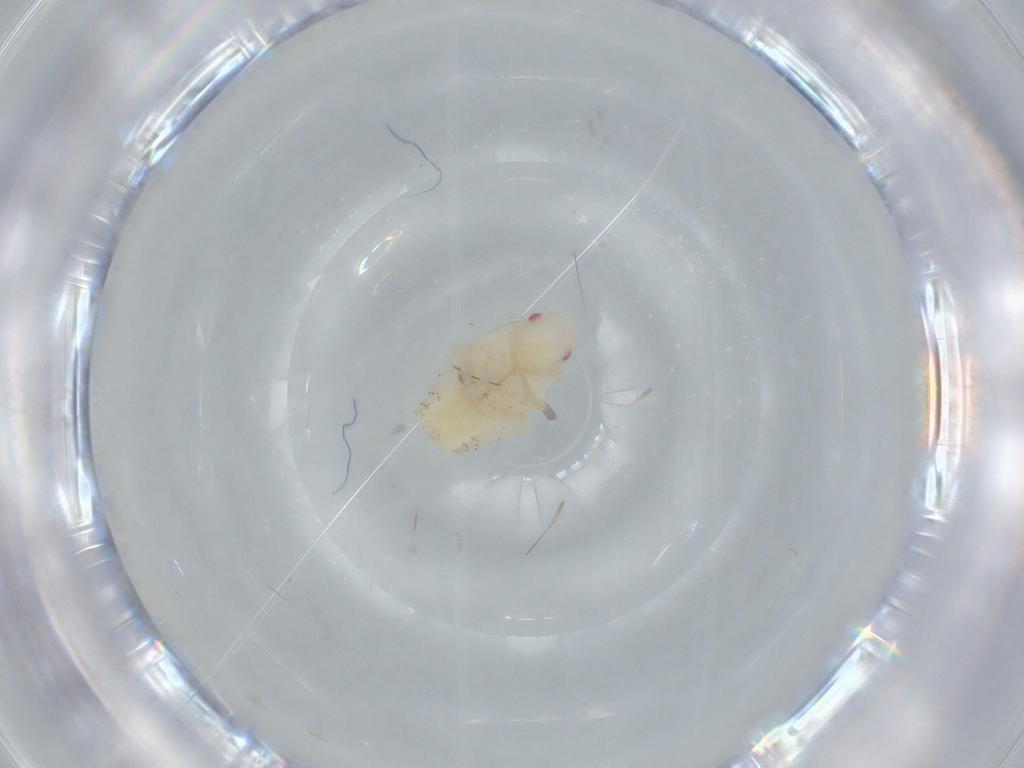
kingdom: Animalia
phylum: Arthropoda
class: Insecta
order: Hemiptera
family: Flatidae
